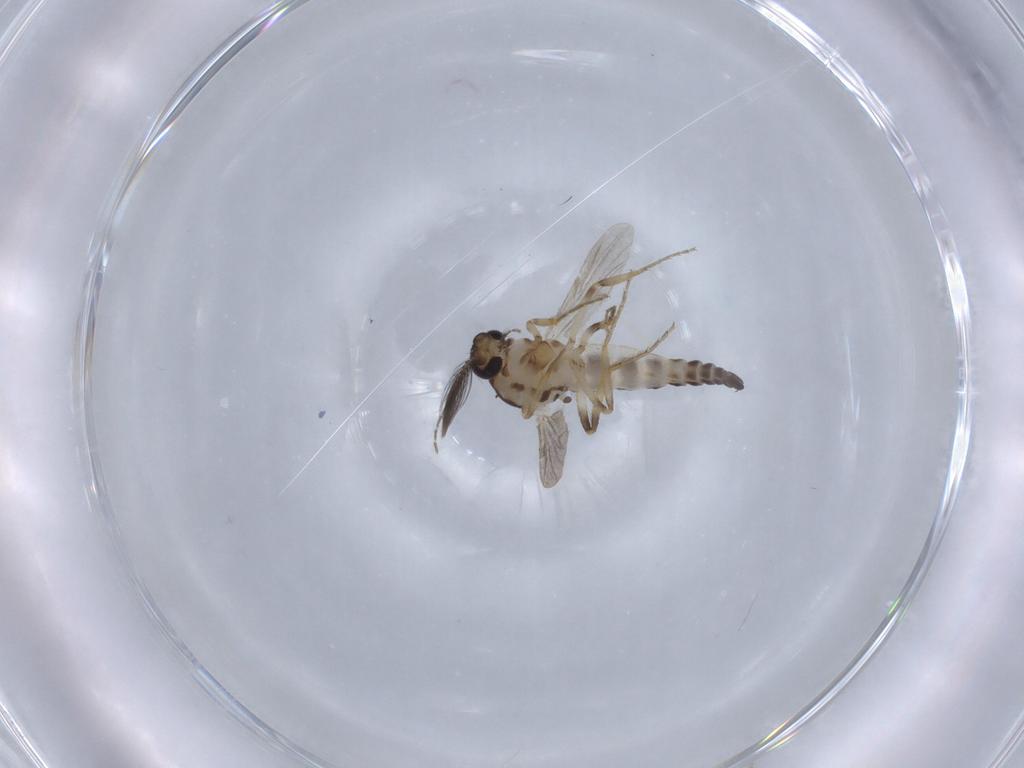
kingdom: Animalia
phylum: Arthropoda
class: Insecta
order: Diptera
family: Ceratopogonidae
